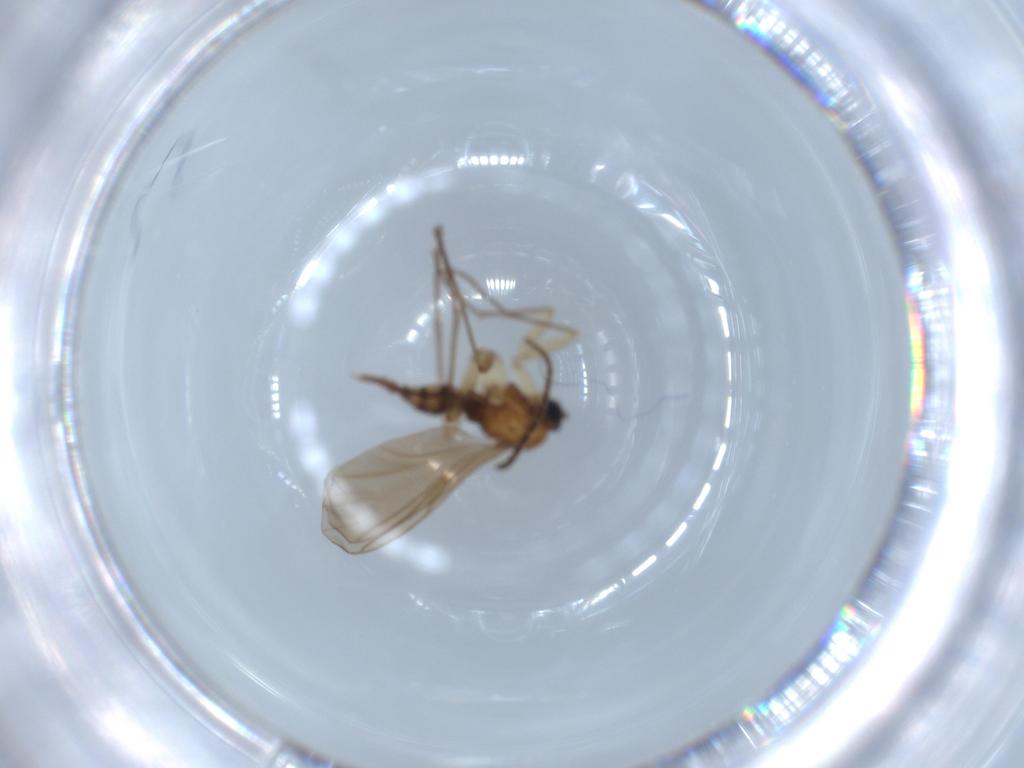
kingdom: Animalia
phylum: Arthropoda
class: Insecta
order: Diptera
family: Sciaridae
